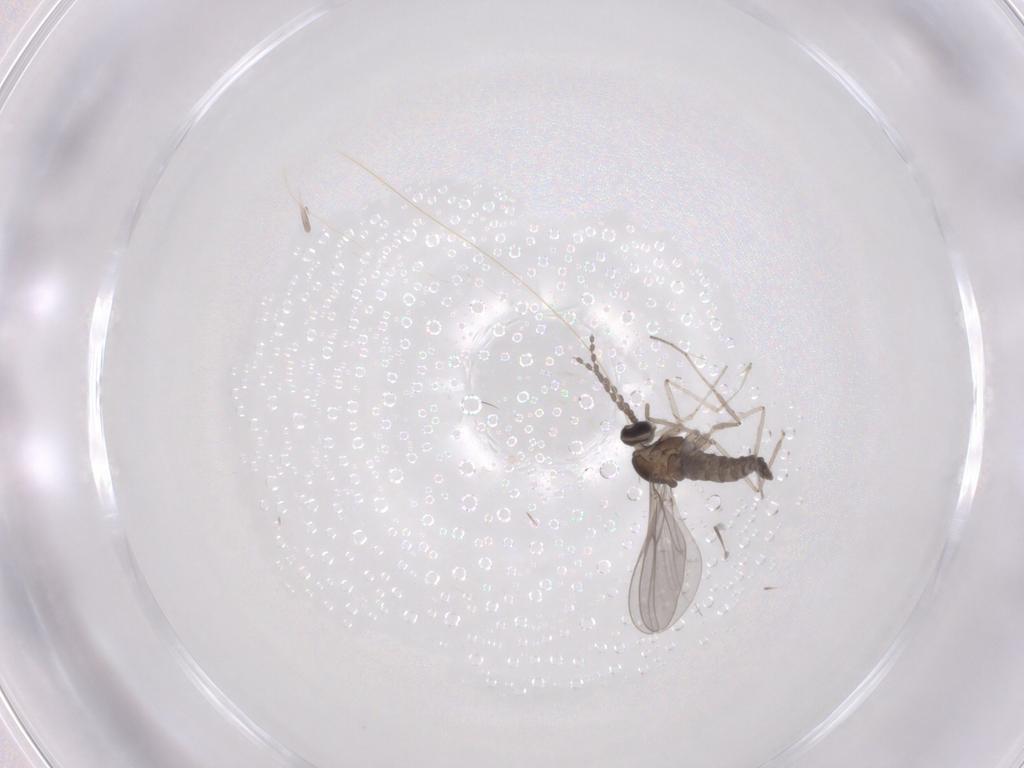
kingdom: Animalia
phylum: Arthropoda
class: Insecta
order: Diptera
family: Cecidomyiidae
